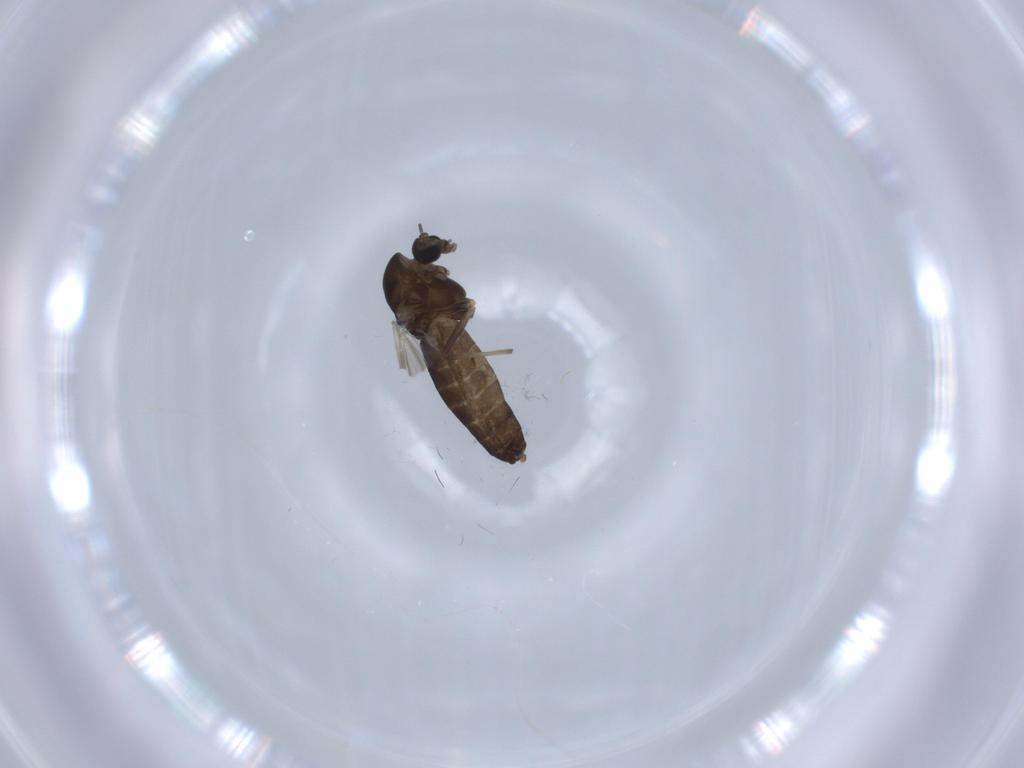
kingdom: Animalia
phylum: Arthropoda
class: Insecta
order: Diptera
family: Chironomidae
